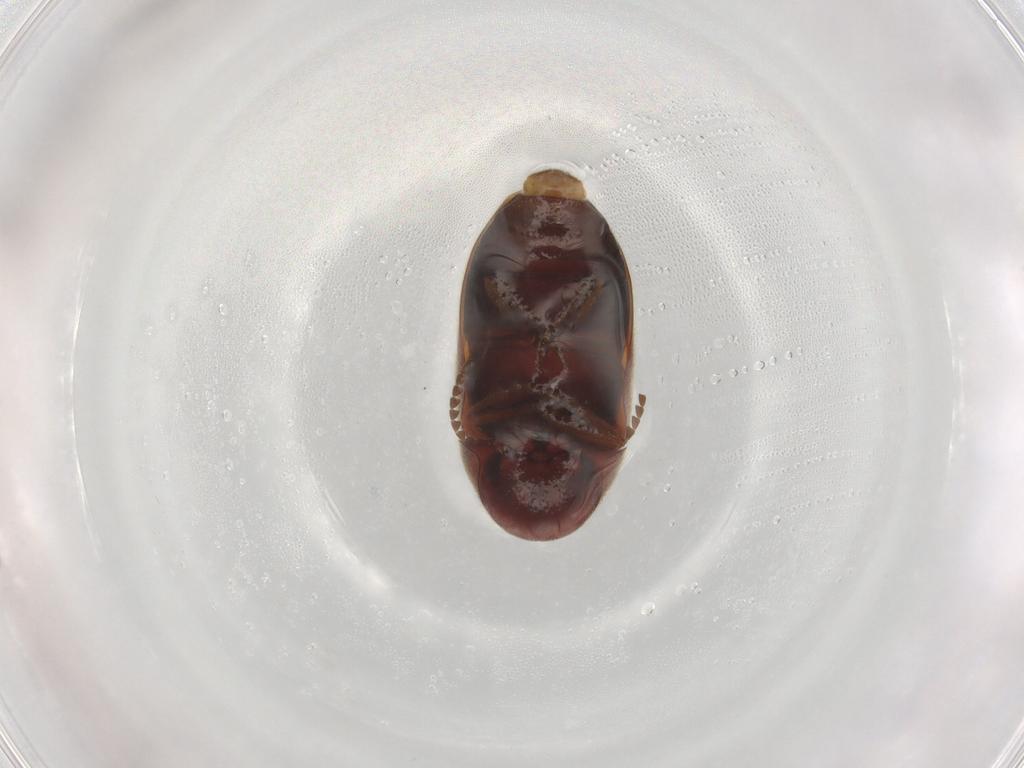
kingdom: Animalia
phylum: Arthropoda
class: Insecta
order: Coleoptera
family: Ptinidae
